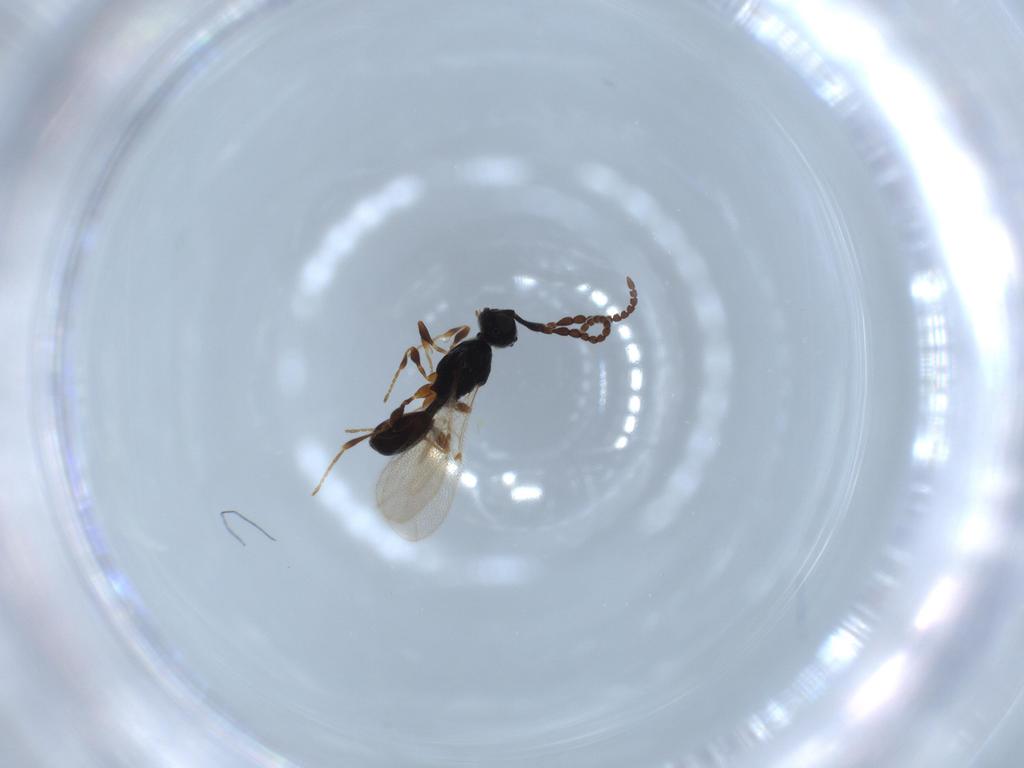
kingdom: Animalia
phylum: Arthropoda
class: Insecta
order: Hymenoptera
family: Diapriidae
